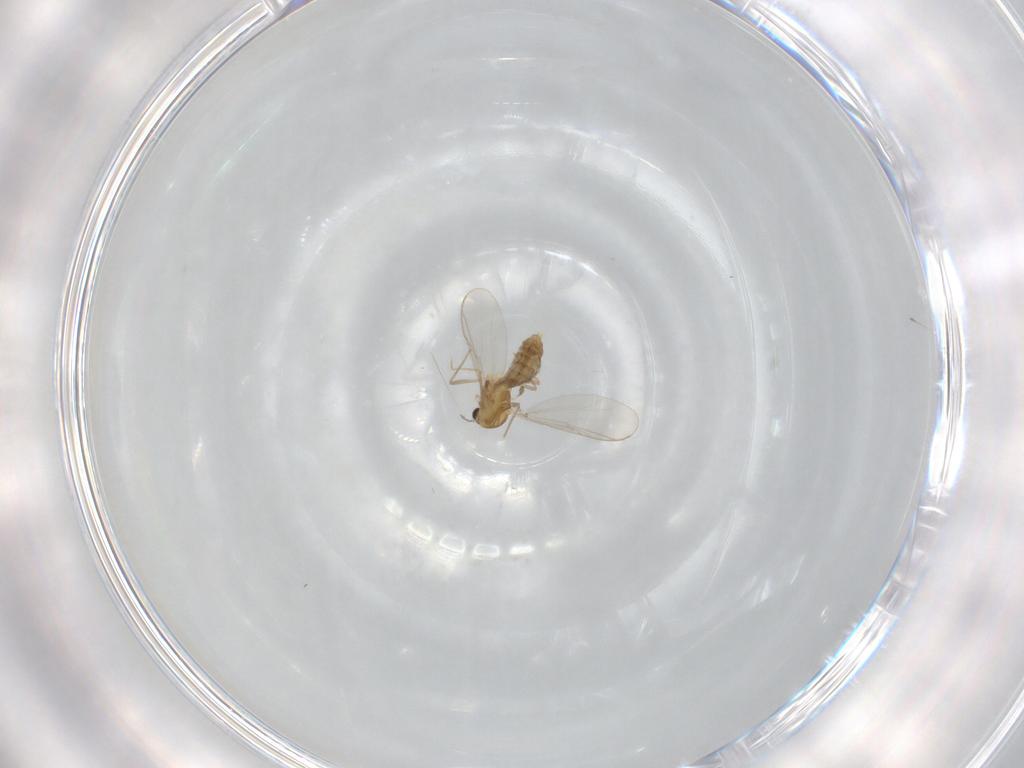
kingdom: Animalia
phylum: Arthropoda
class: Insecta
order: Diptera
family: Chironomidae
